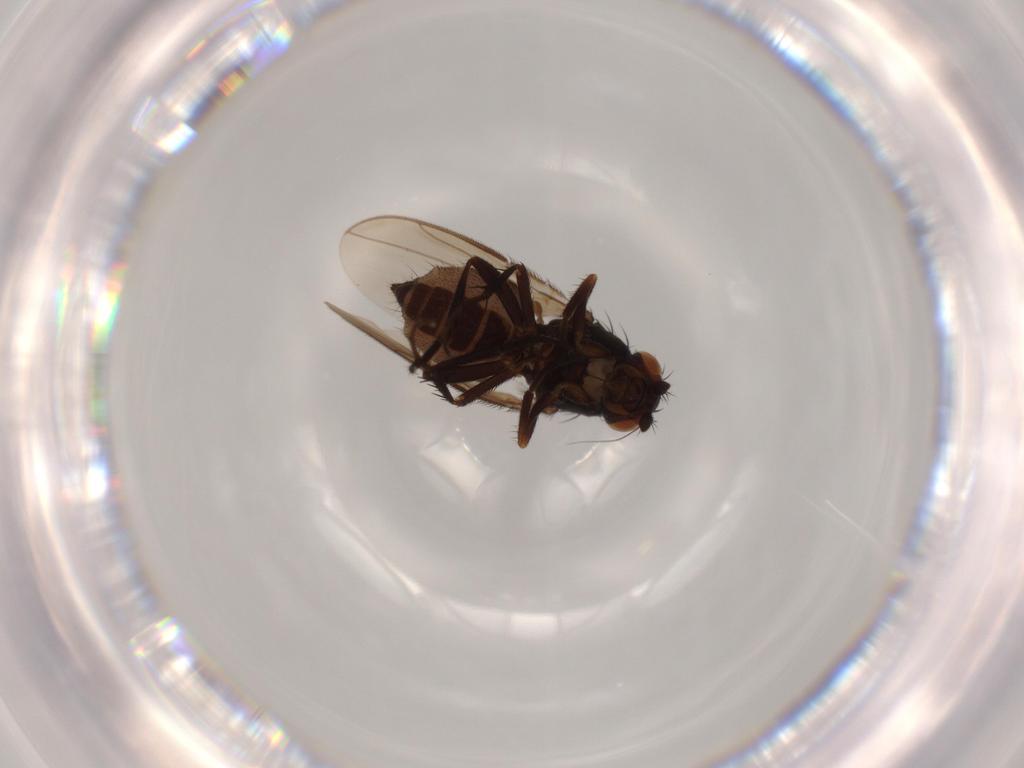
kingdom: Animalia
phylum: Arthropoda
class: Insecta
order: Diptera
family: Sphaeroceridae
